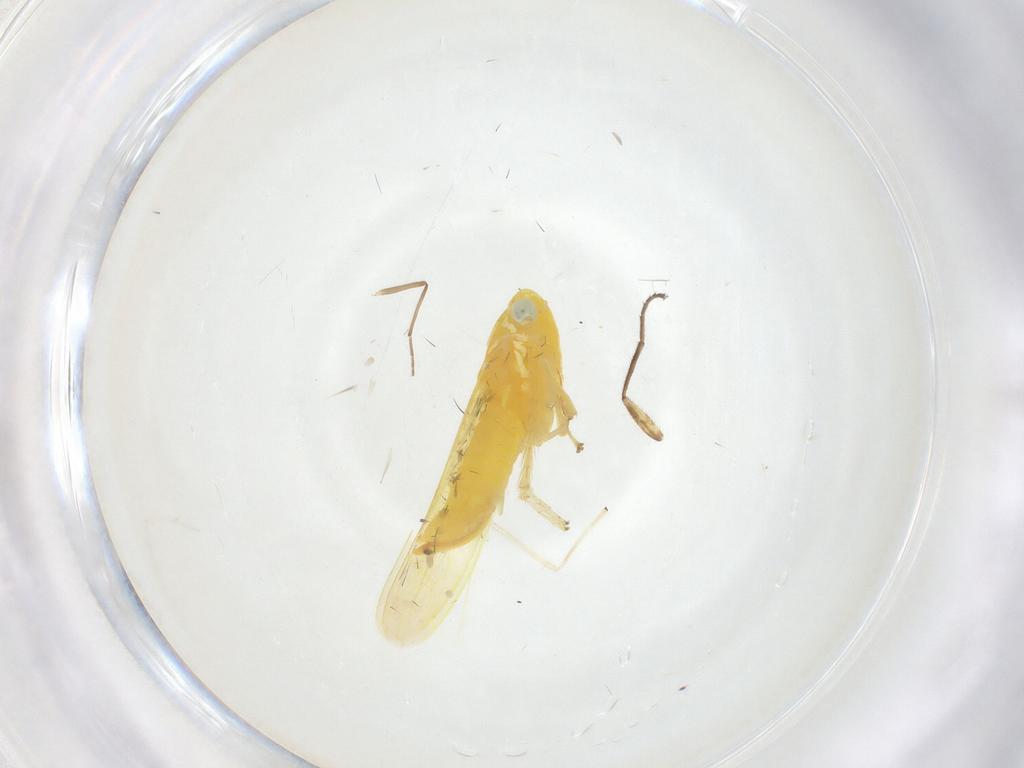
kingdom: Animalia
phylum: Arthropoda
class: Insecta
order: Hemiptera
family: Cicadellidae
